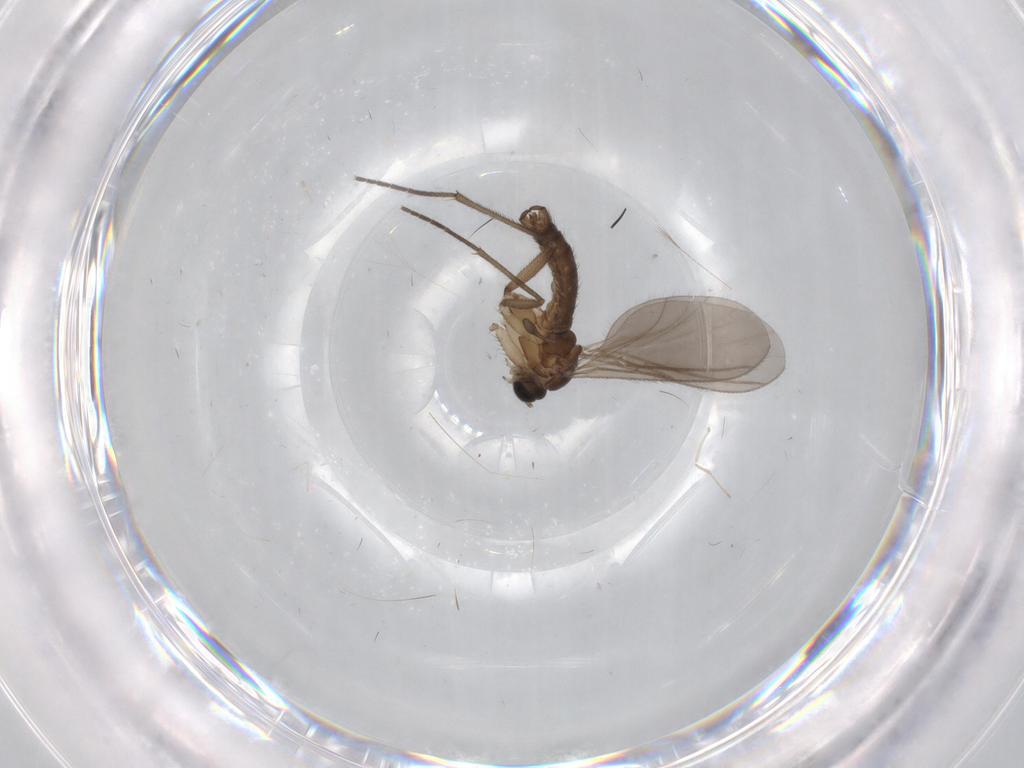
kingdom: Animalia
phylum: Arthropoda
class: Insecta
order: Diptera
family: Sciaridae
